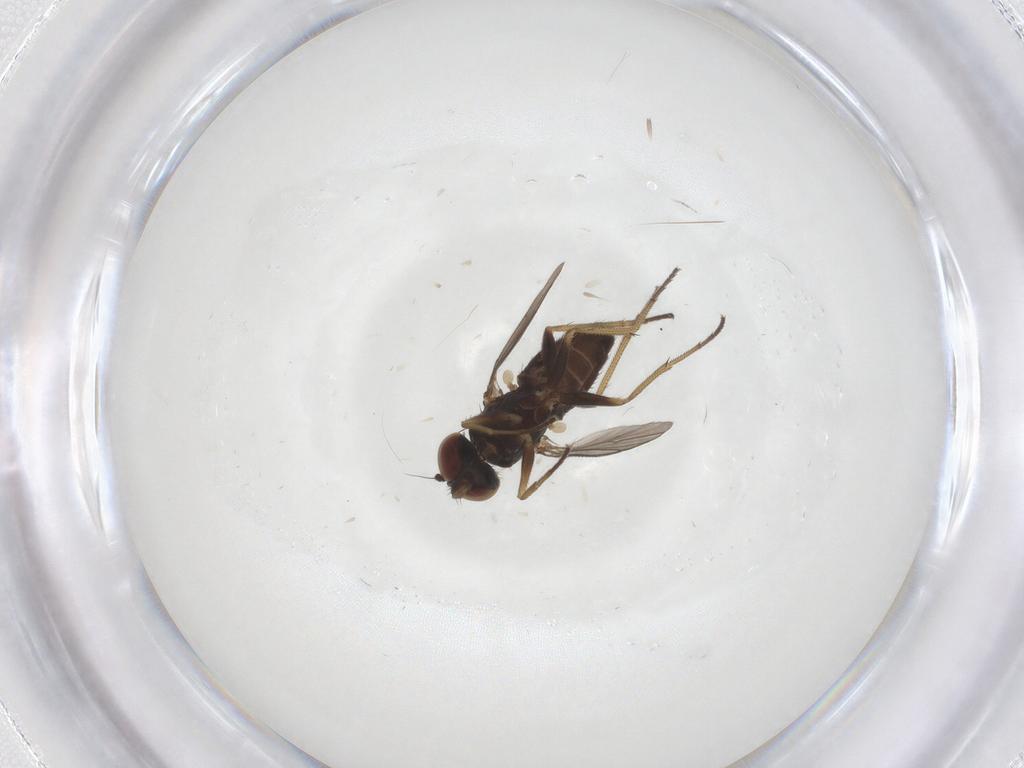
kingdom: Animalia
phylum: Arthropoda
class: Insecta
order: Diptera
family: Dolichopodidae
